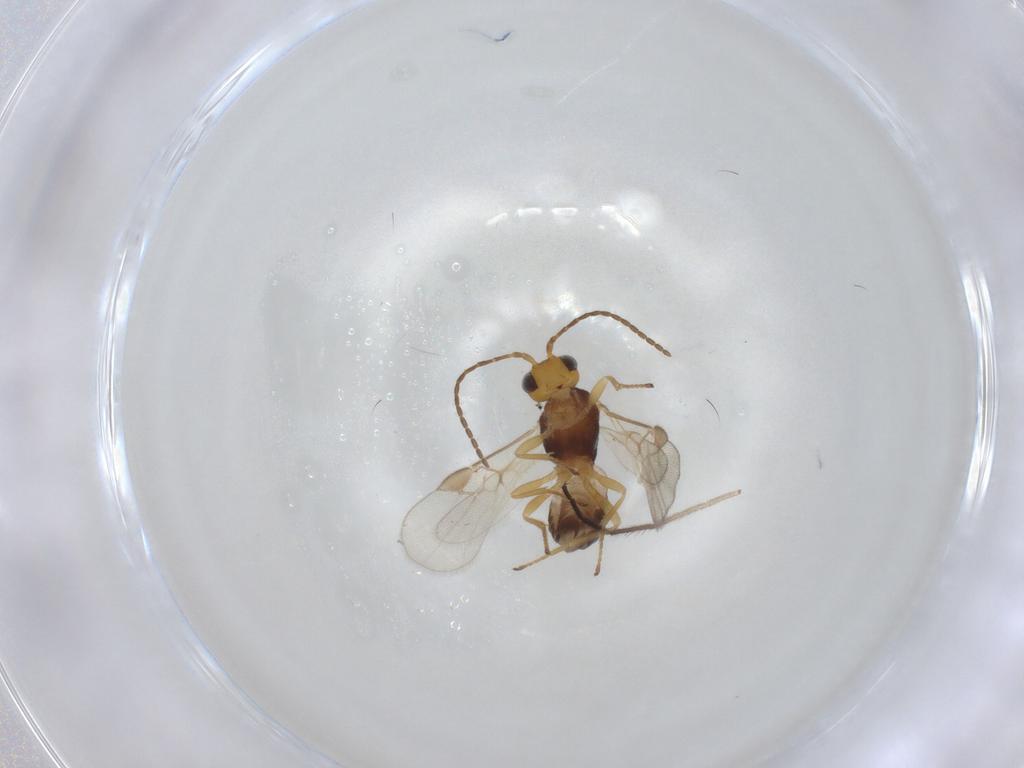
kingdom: Animalia
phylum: Arthropoda
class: Insecta
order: Hymenoptera
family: Braconidae
